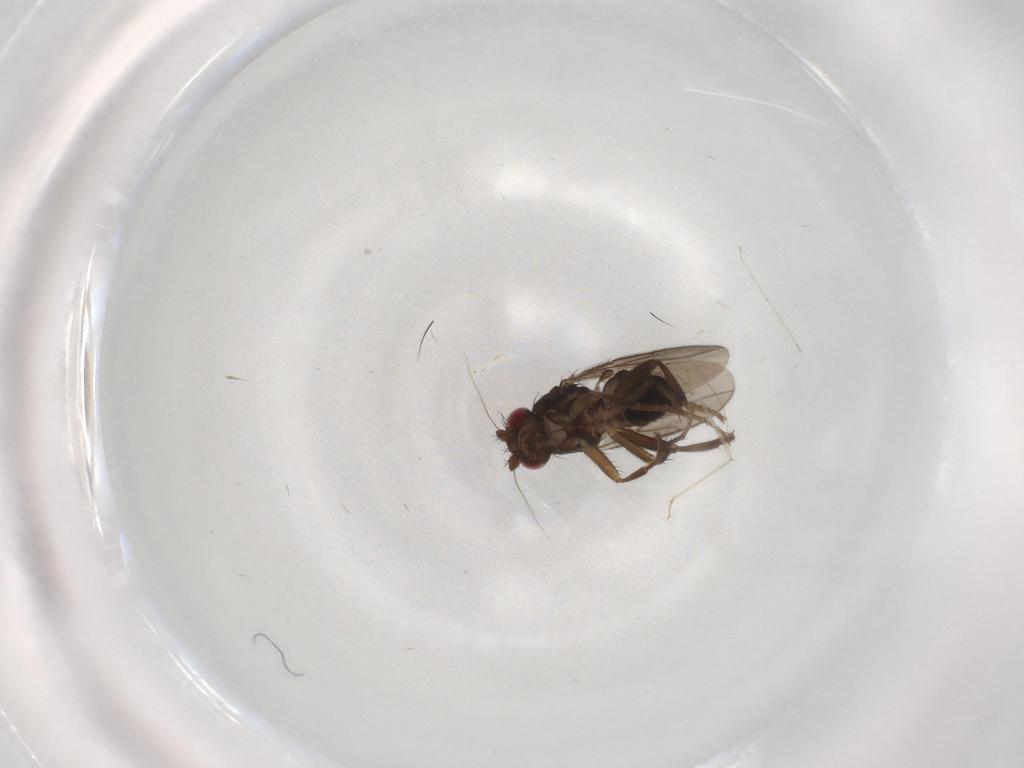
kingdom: Animalia
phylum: Arthropoda
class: Insecta
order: Diptera
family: Cecidomyiidae
